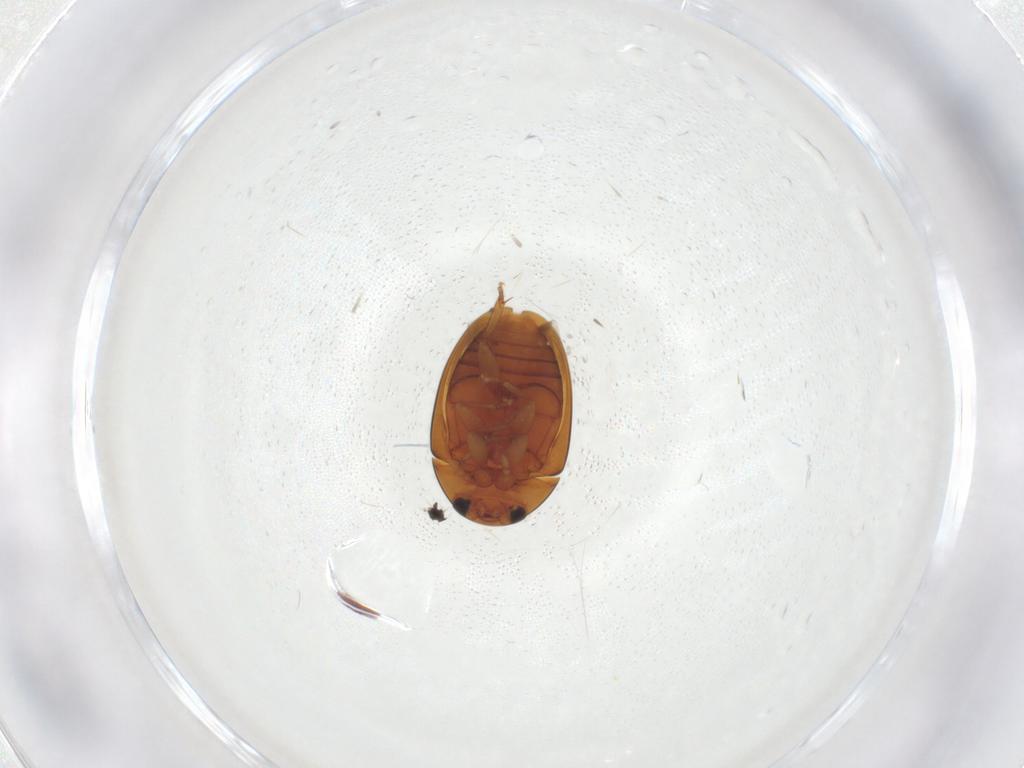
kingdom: Animalia
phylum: Arthropoda
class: Insecta
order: Coleoptera
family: Phalacridae
